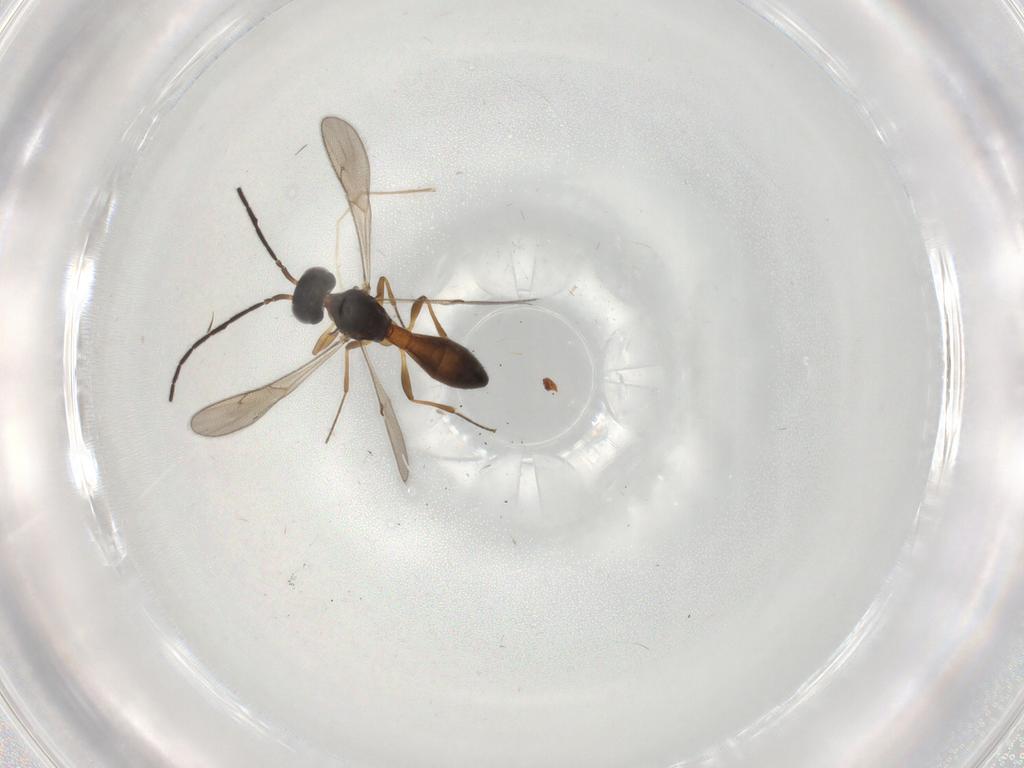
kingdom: Animalia
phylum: Arthropoda
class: Insecta
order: Hymenoptera
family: Scelionidae
